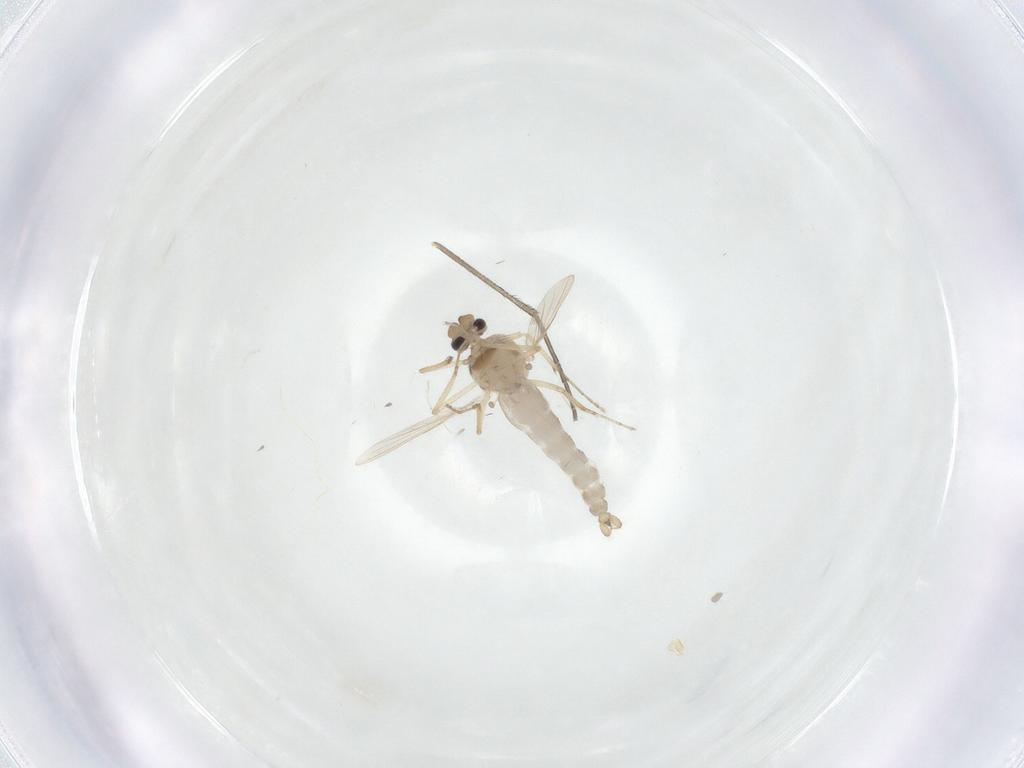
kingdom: Animalia
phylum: Arthropoda
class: Insecta
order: Diptera
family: Ceratopogonidae
